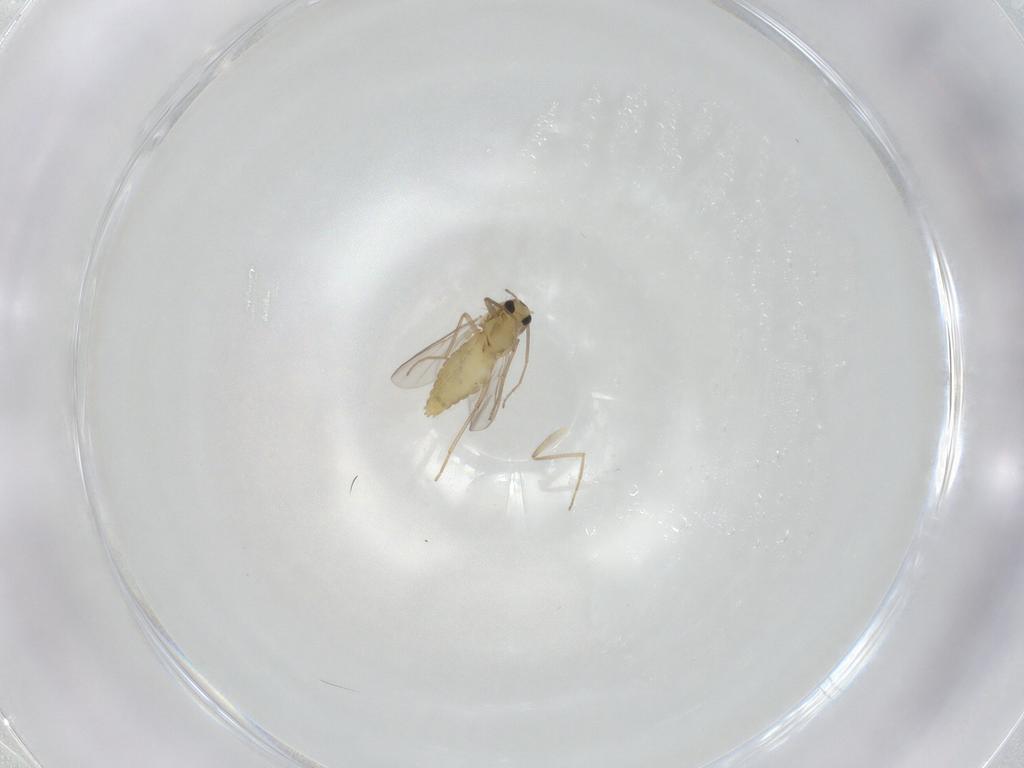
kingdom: Animalia
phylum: Arthropoda
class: Insecta
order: Diptera
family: Chironomidae
